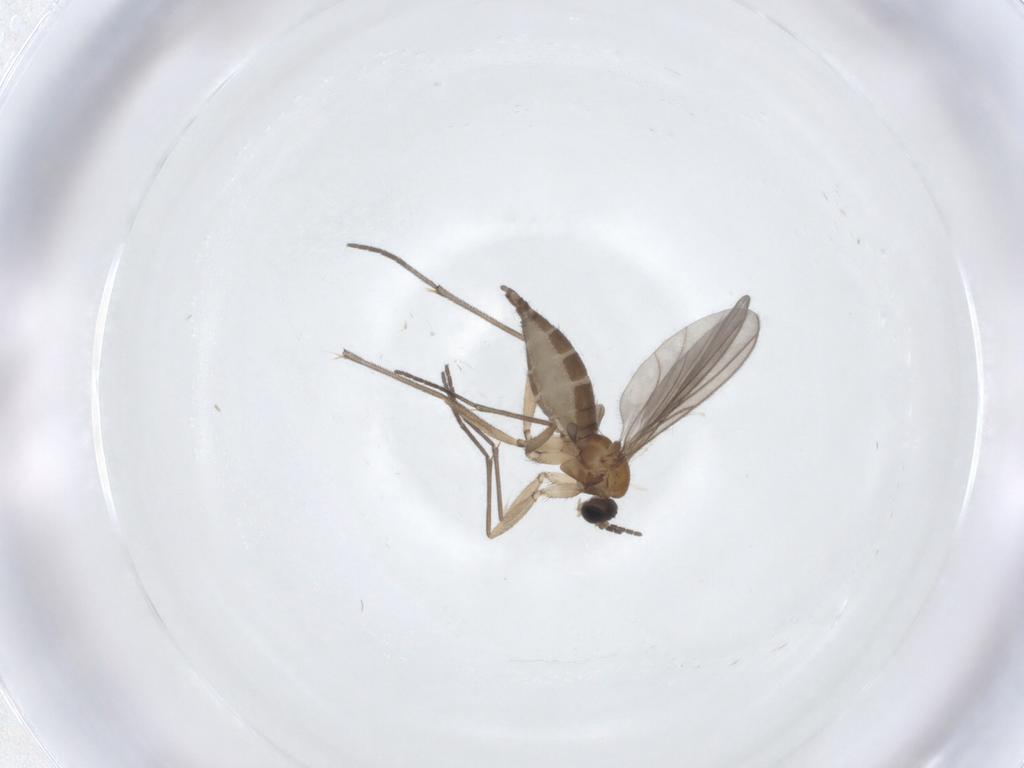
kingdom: Animalia
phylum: Arthropoda
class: Insecta
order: Diptera
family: Sciaridae
